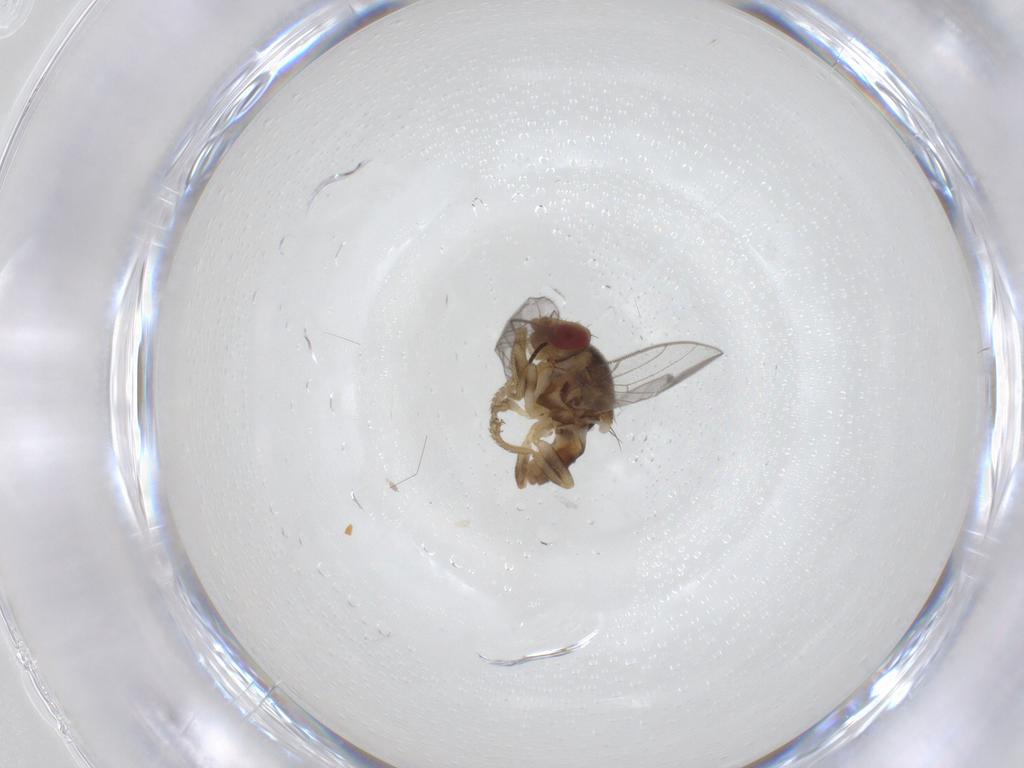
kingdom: Animalia
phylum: Arthropoda
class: Insecta
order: Diptera
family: Chloropidae
